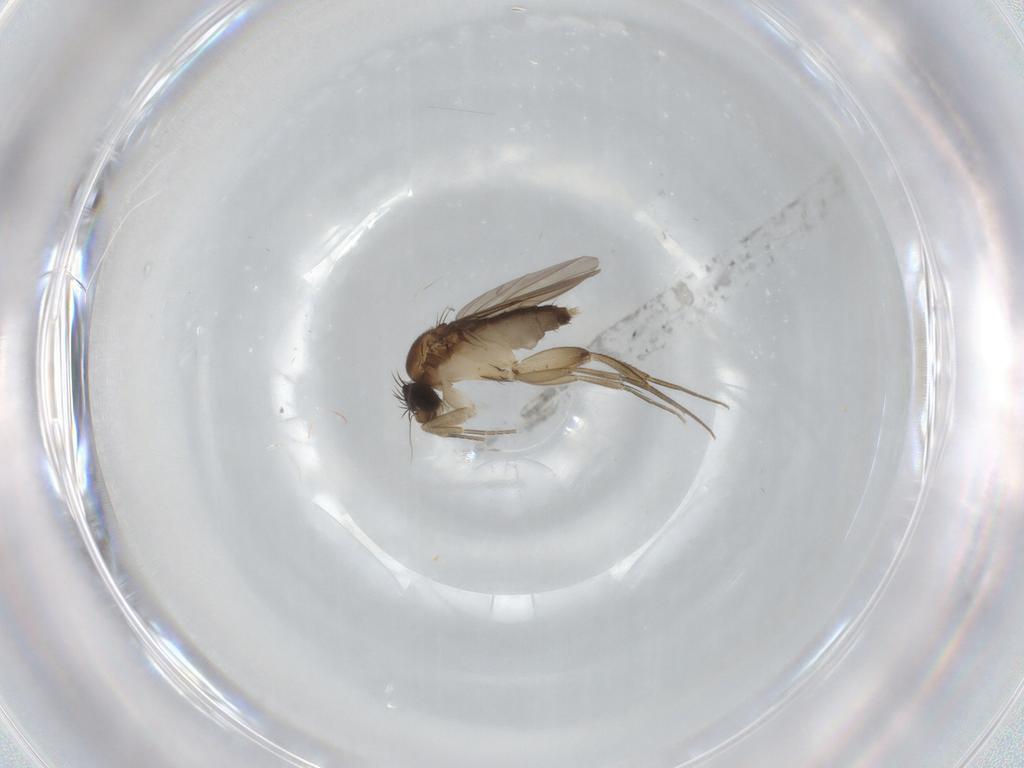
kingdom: Animalia
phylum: Arthropoda
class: Insecta
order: Diptera
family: Phoridae
